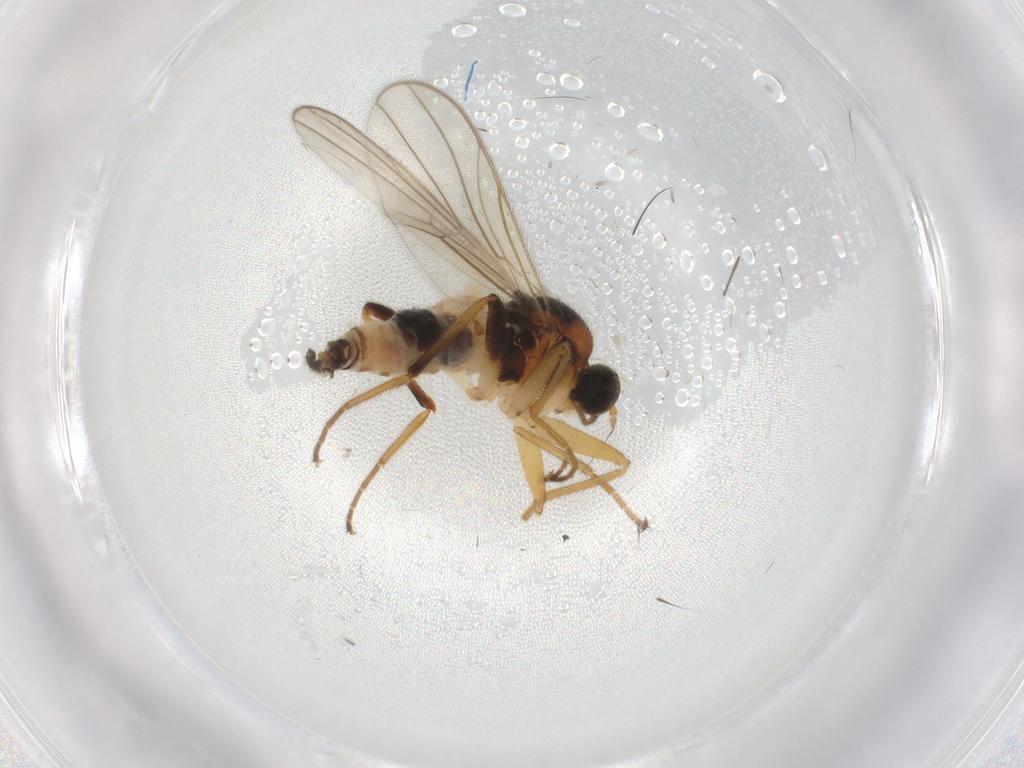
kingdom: Animalia
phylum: Arthropoda
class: Insecta
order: Diptera
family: Hybotidae
